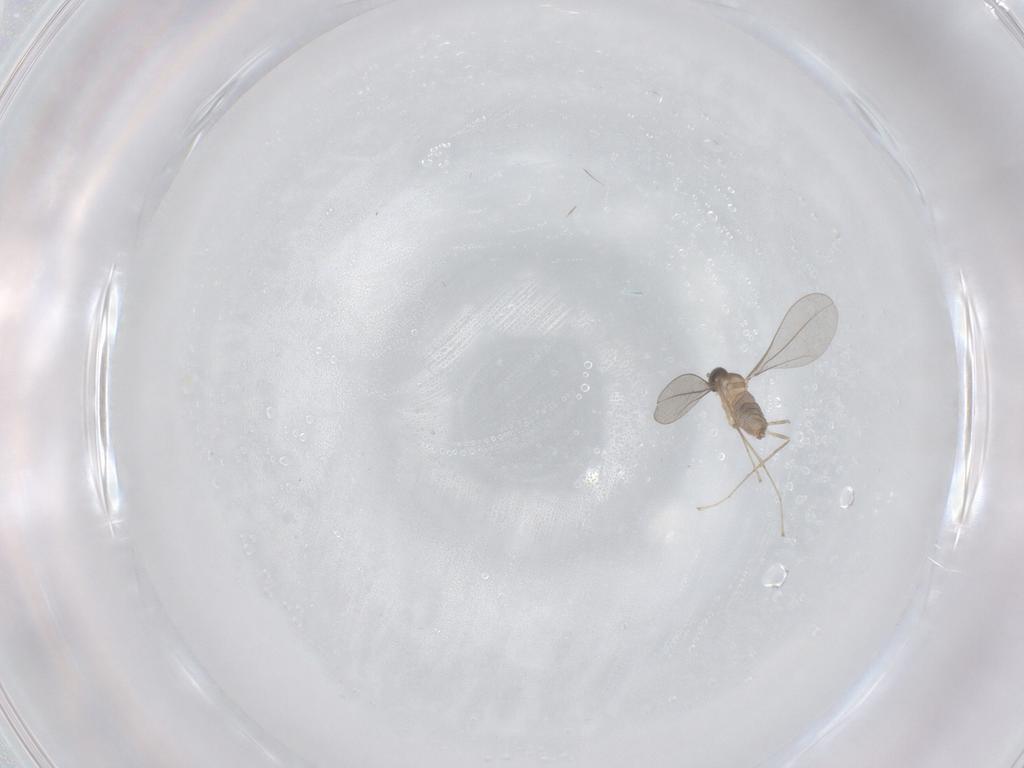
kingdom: Animalia
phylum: Arthropoda
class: Insecta
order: Diptera
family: Cecidomyiidae
